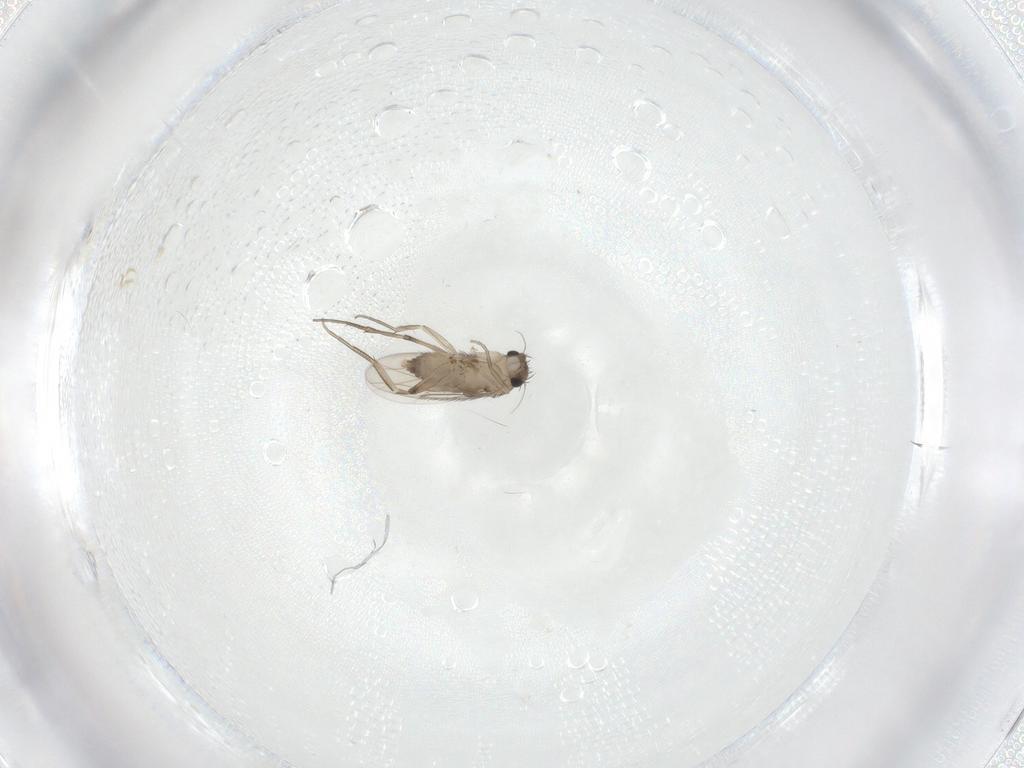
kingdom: Animalia
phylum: Arthropoda
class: Insecta
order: Diptera
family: Phoridae
